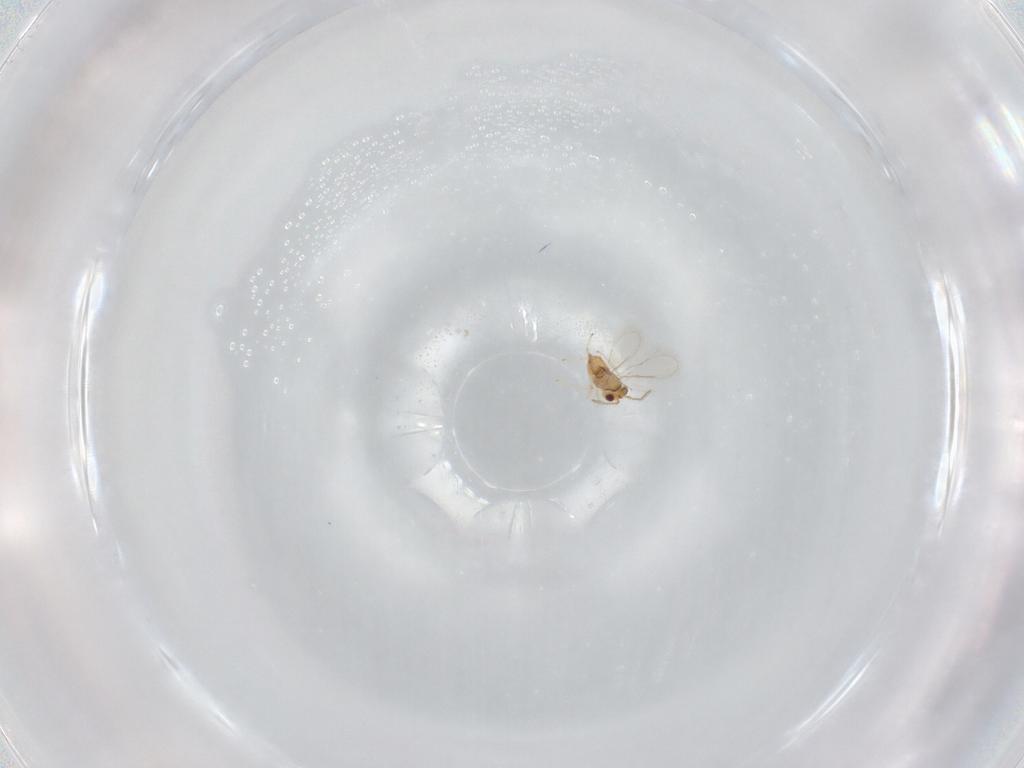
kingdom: Animalia
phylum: Arthropoda
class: Insecta
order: Hymenoptera
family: Aphelinidae
